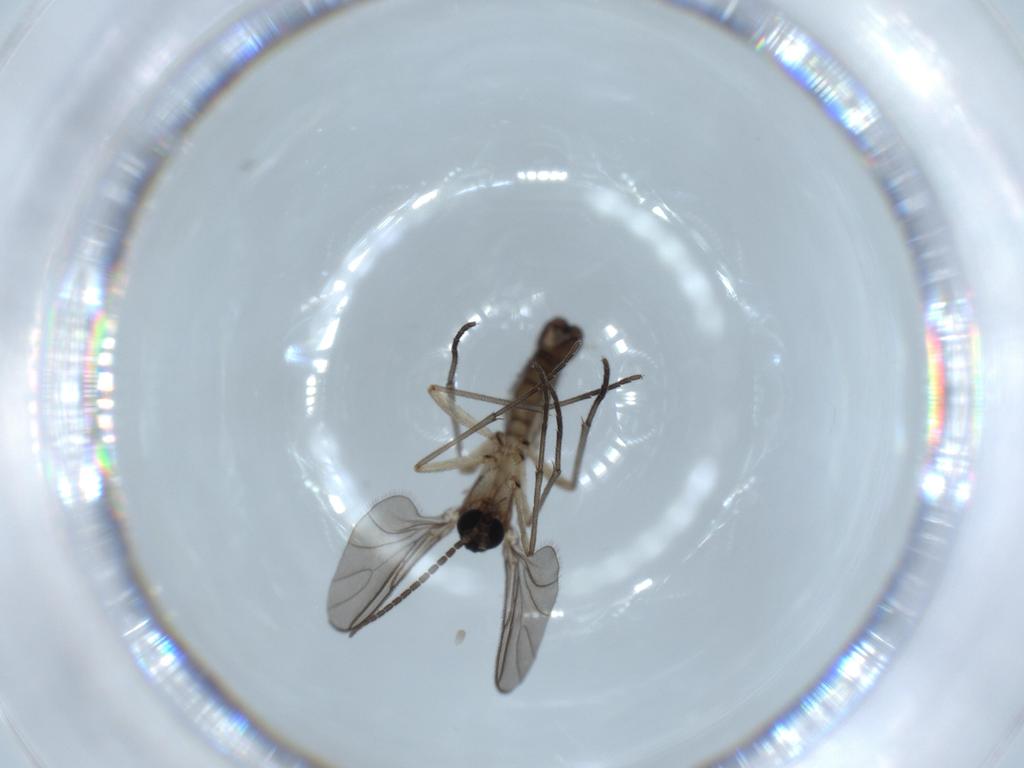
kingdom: Animalia
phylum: Arthropoda
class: Insecta
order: Diptera
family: Sciaridae
